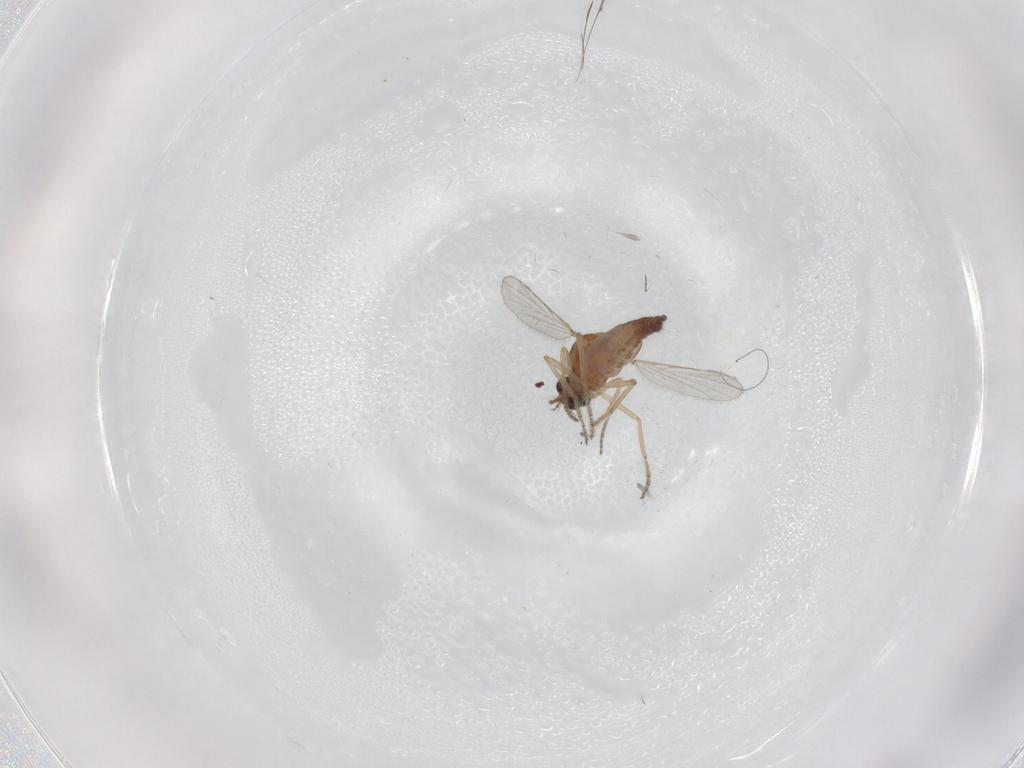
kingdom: Animalia
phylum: Arthropoda
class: Insecta
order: Diptera
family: Ceratopogonidae
